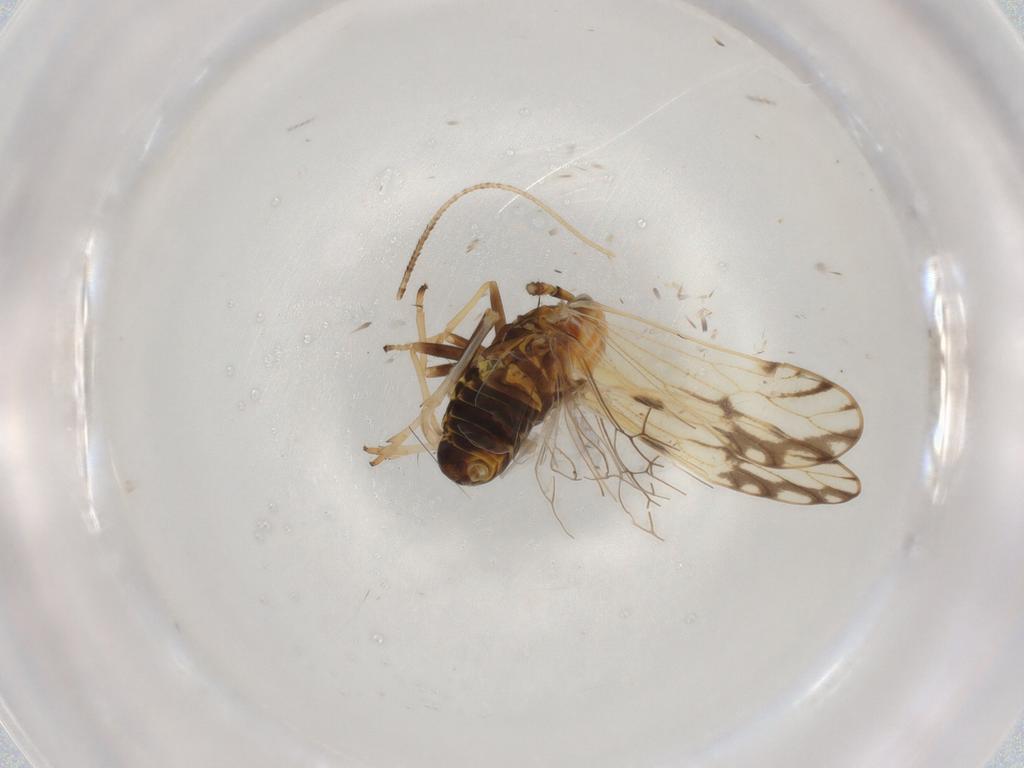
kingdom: Animalia
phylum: Arthropoda
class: Insecta
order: Hemiptera
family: Delphacidae
